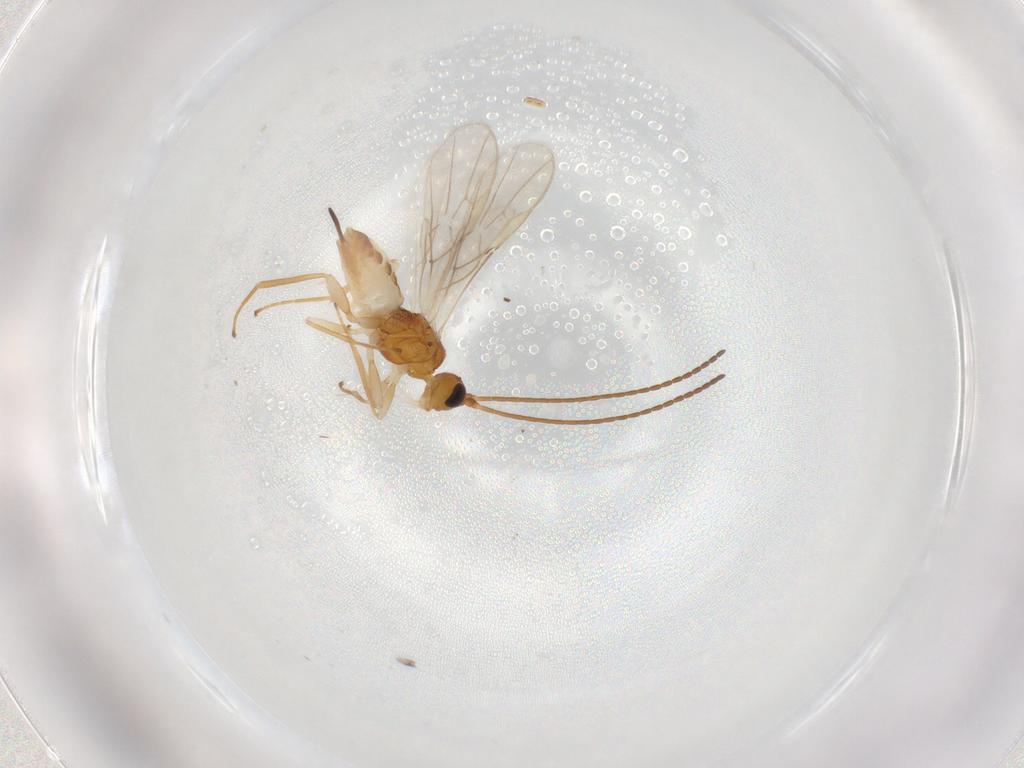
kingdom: Animalia
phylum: Arthropoda
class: Insecta
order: Hymenoptera
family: Braconidae
